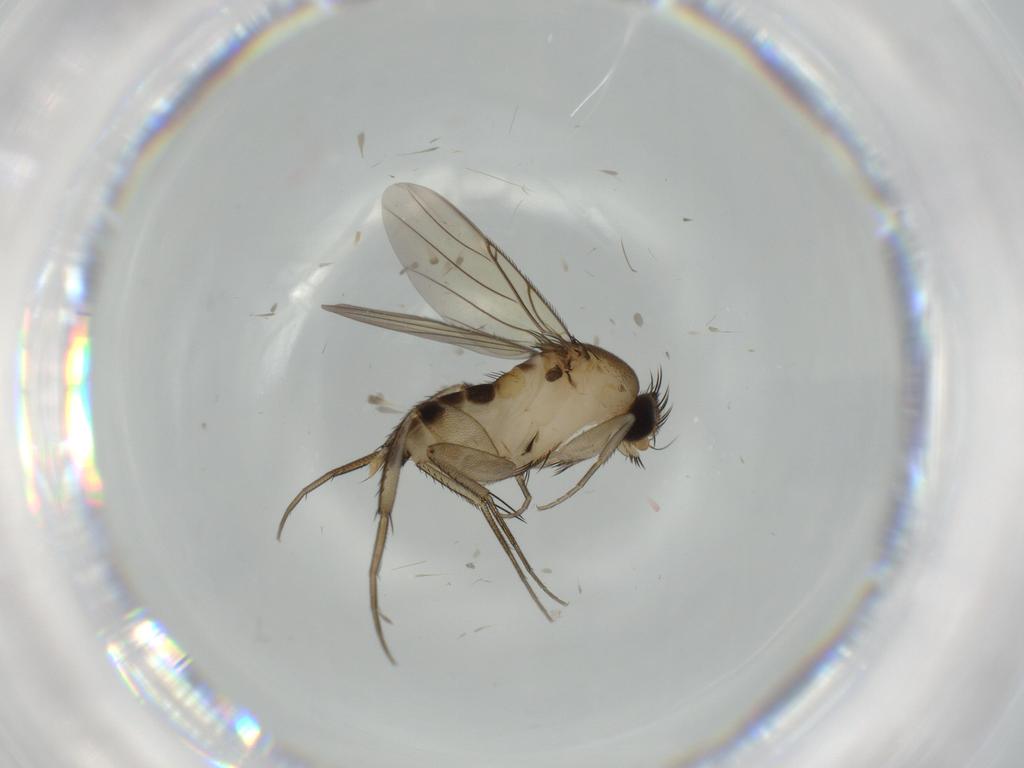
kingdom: Animalia
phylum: Arthropoda
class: Insecta
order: Diptera
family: Phoridae
